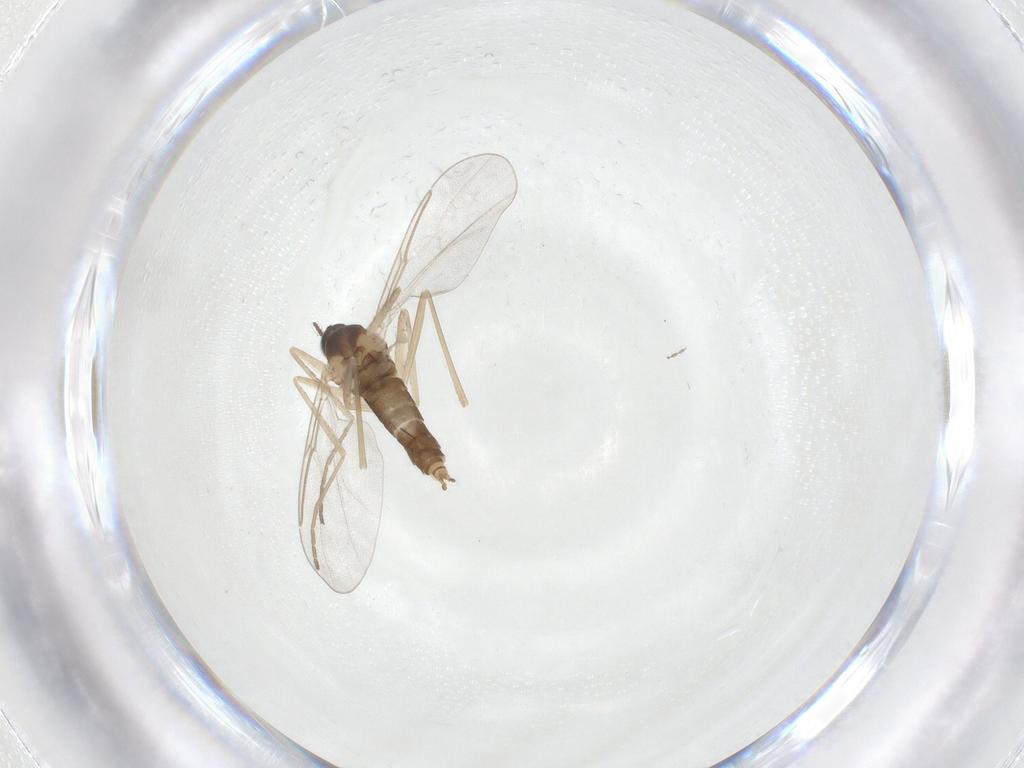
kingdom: Animalia
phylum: Arthropoda
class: Insecta
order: Diptera
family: Cecidomyiidae
